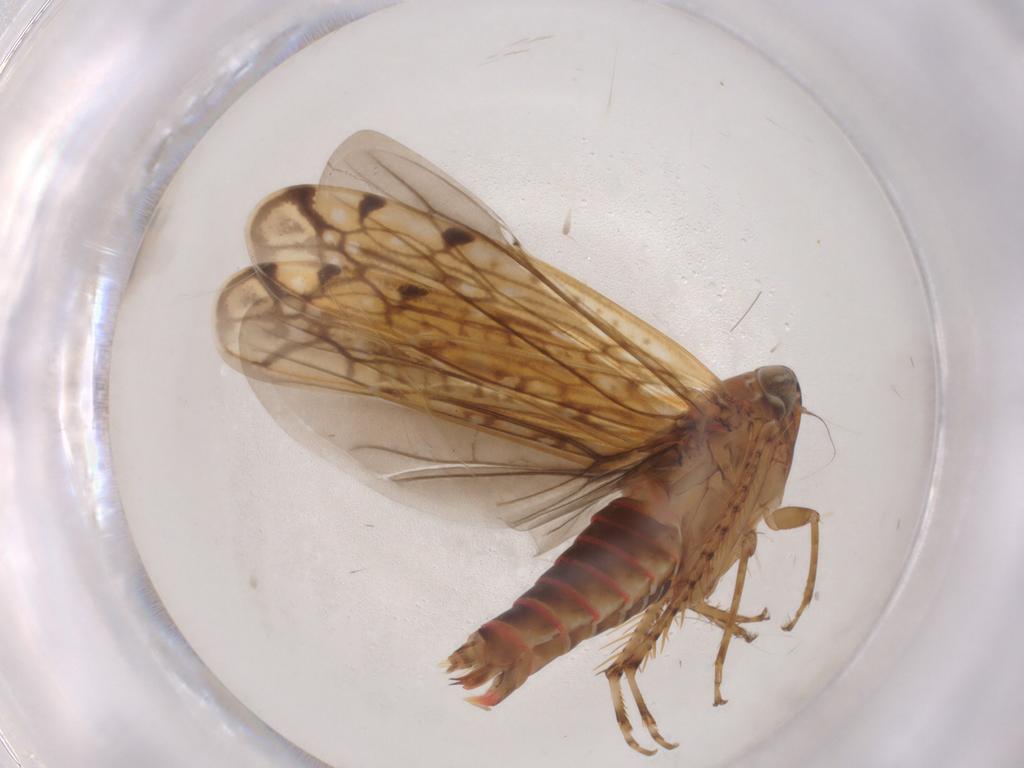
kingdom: Animalia
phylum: Arthropoda
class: Insecta
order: Hemiptera
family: Cicadellidae
